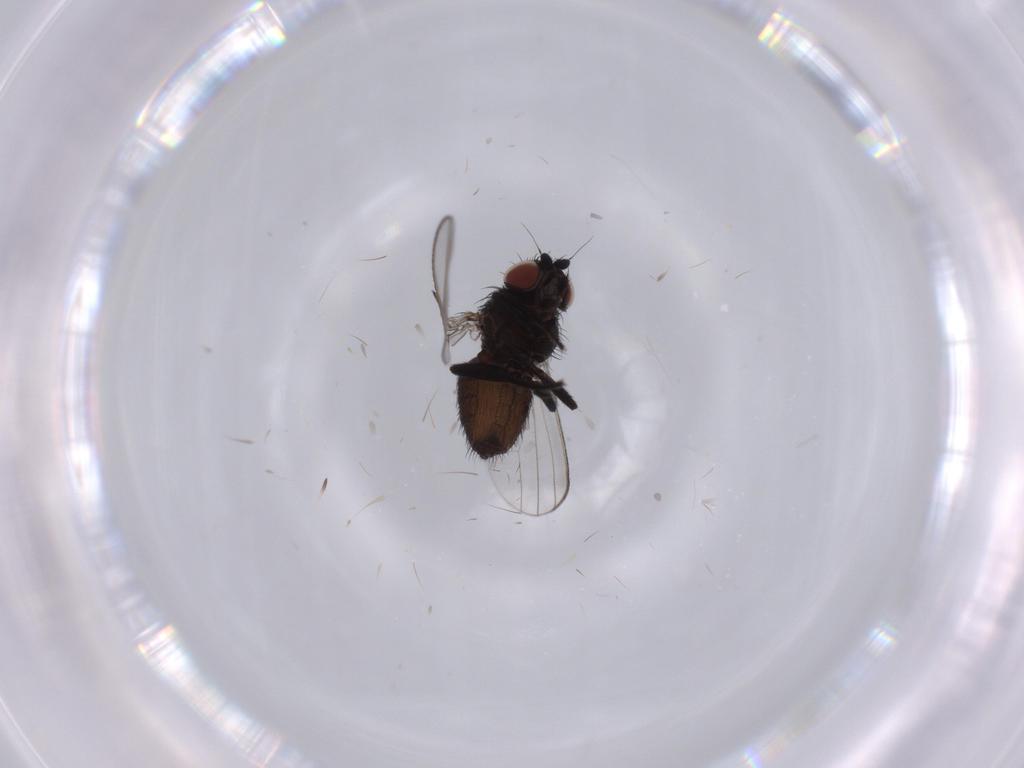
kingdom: Animalia
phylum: Arthropoda
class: Insecta
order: Diptera
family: Milichiidae
